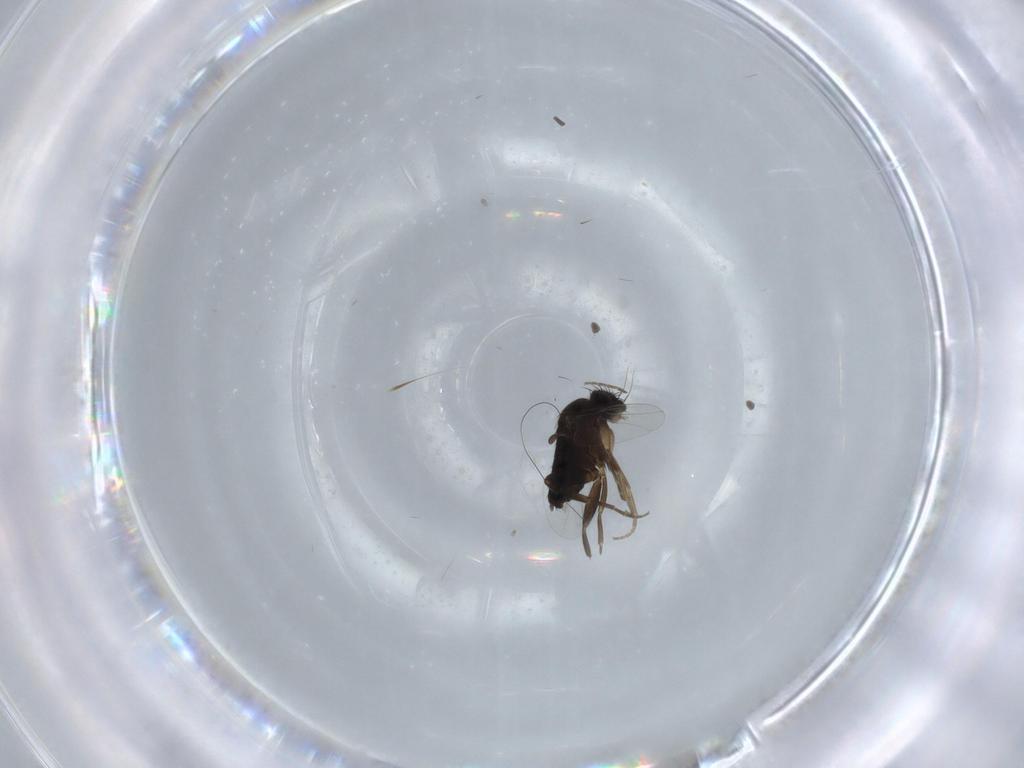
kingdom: Animalia
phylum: Arthropoda
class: Insecta
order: Diptera
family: Phoridae
